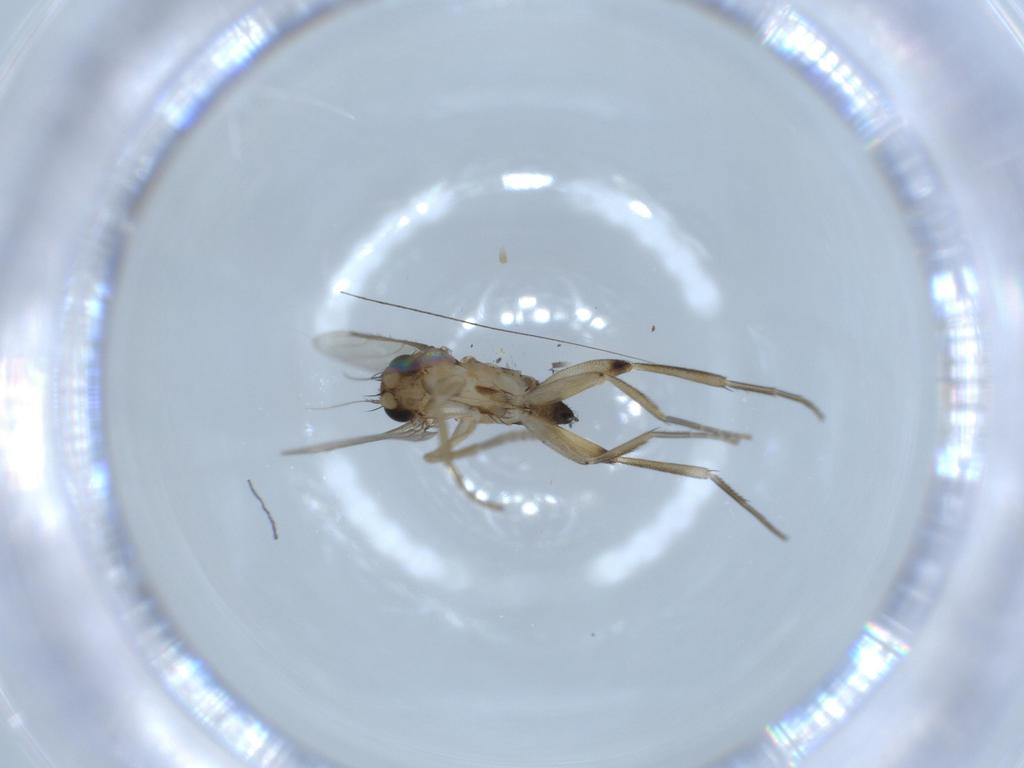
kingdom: Animalia
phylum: Arthropoda
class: Insecta
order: Diptera
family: Phoridae
